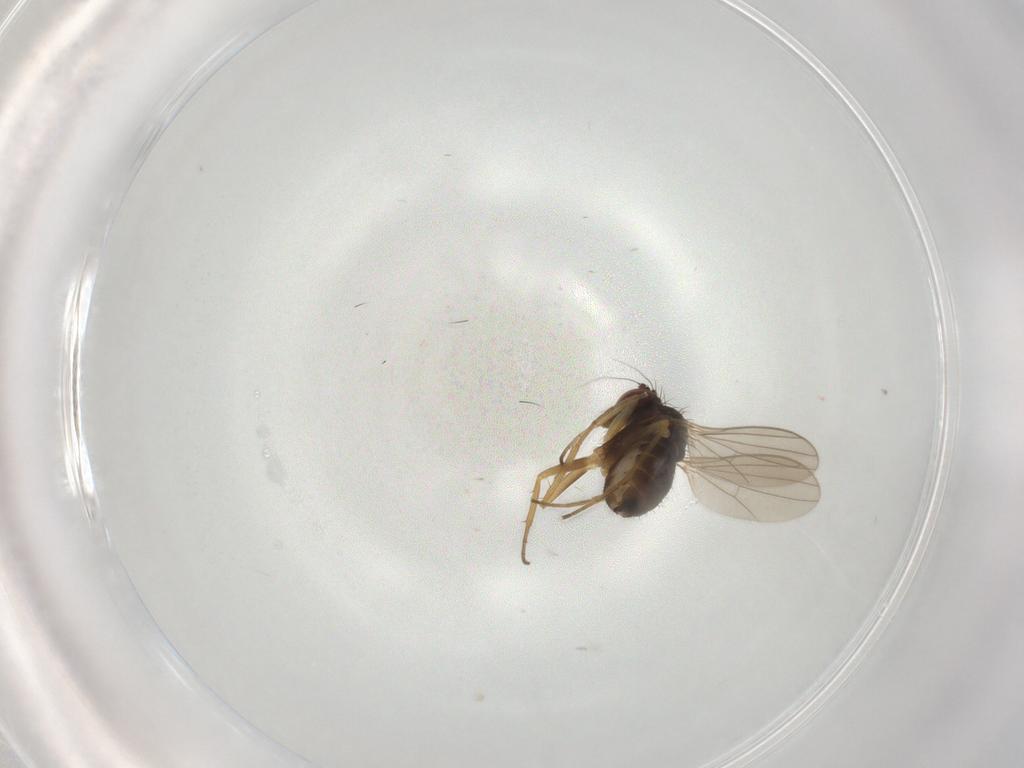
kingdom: Animalia
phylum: Arthropoda
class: Insecta
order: Diptera
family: Dolichopodidae
